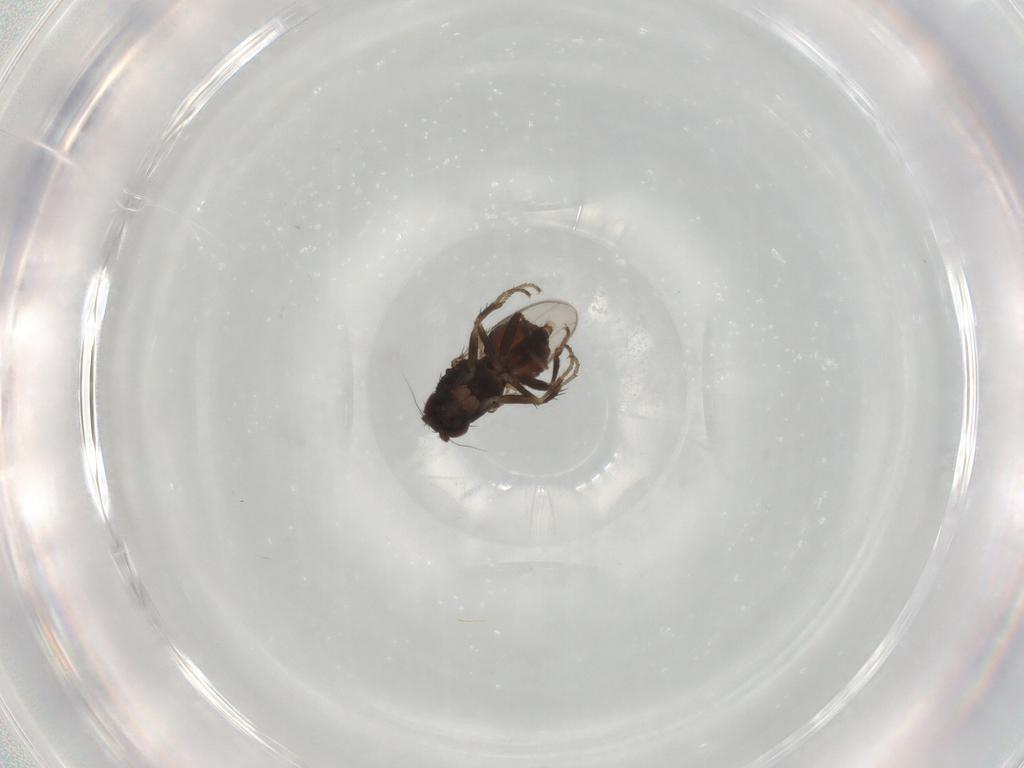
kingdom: Animalia
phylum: Arthropoda
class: Insecta
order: Diptera
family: Sphaeroceridae
